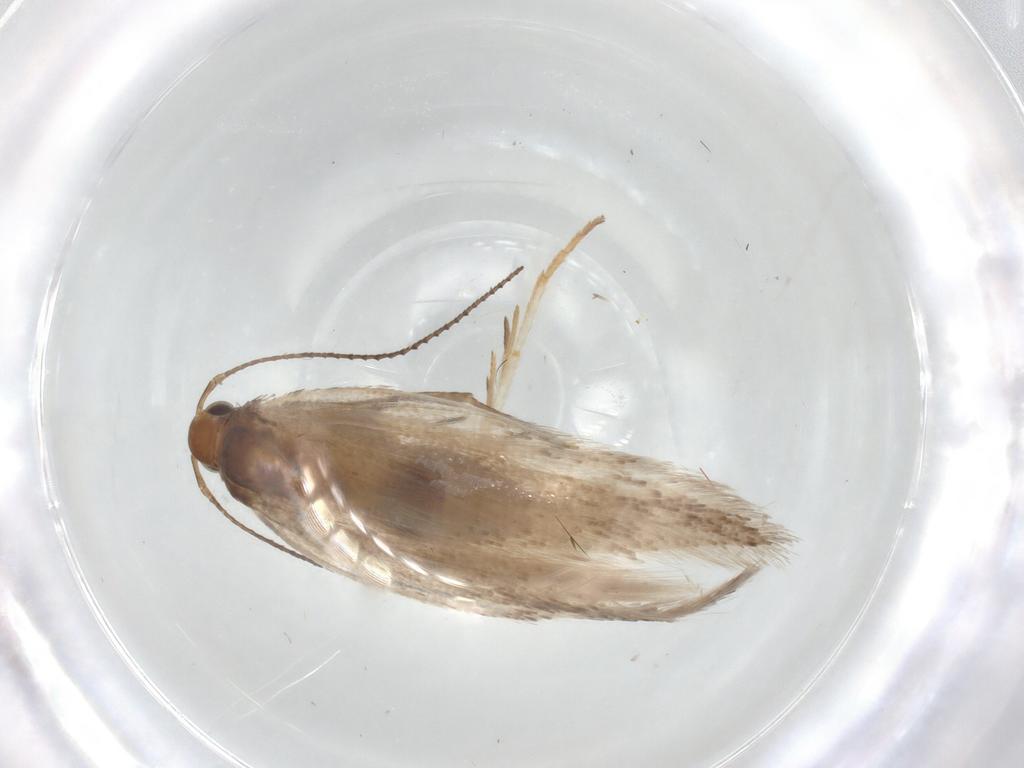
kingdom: Animalia
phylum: Arthropoda
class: Insecta
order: Lepidoptera
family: Gelechiidae
